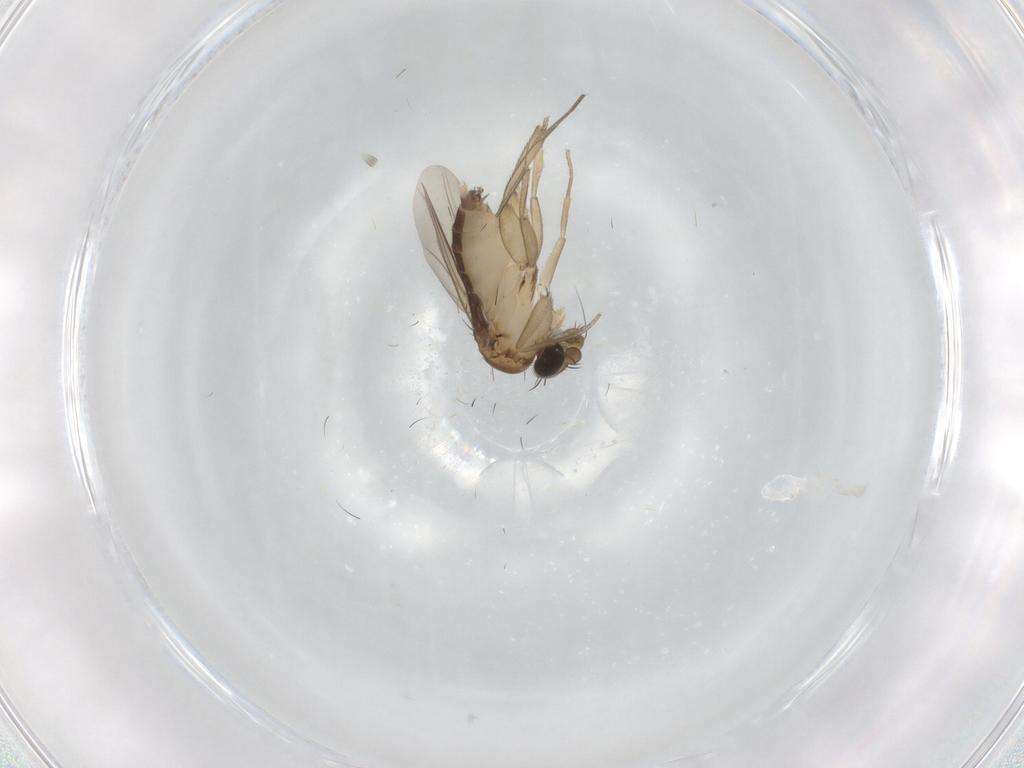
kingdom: Animalia
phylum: Arthropoda
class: Insecta
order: Diptera
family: Phoridae
